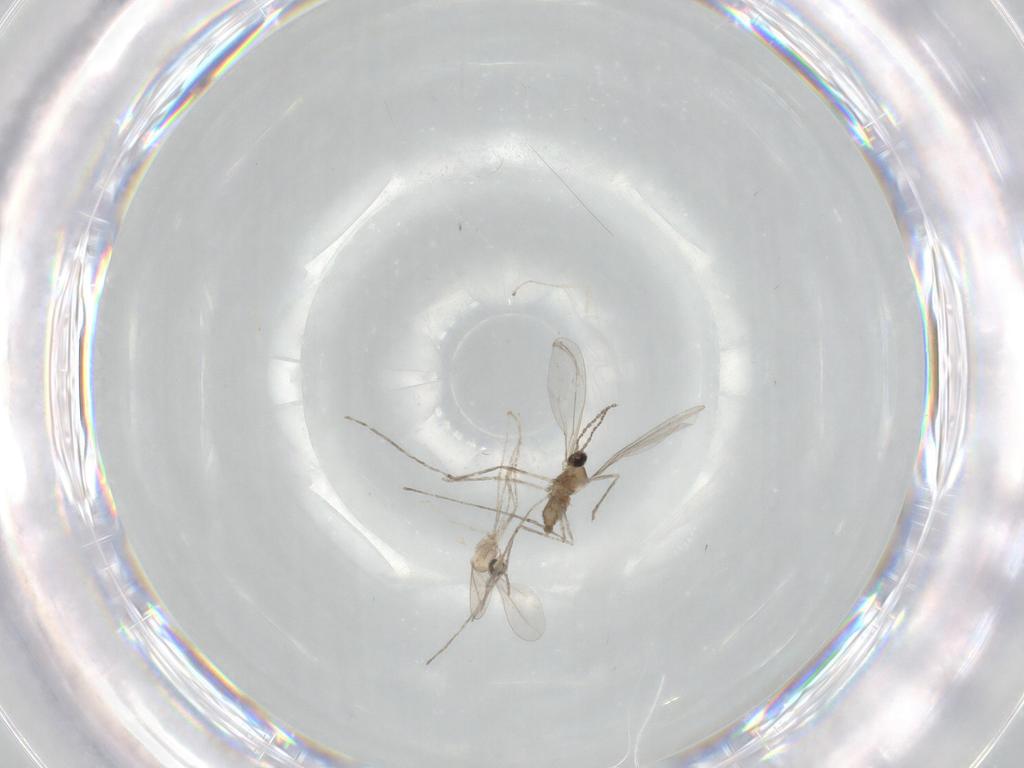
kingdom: Animalia
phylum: Arthropoda
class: Insecta
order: Diptera
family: Cecidomyiidae
